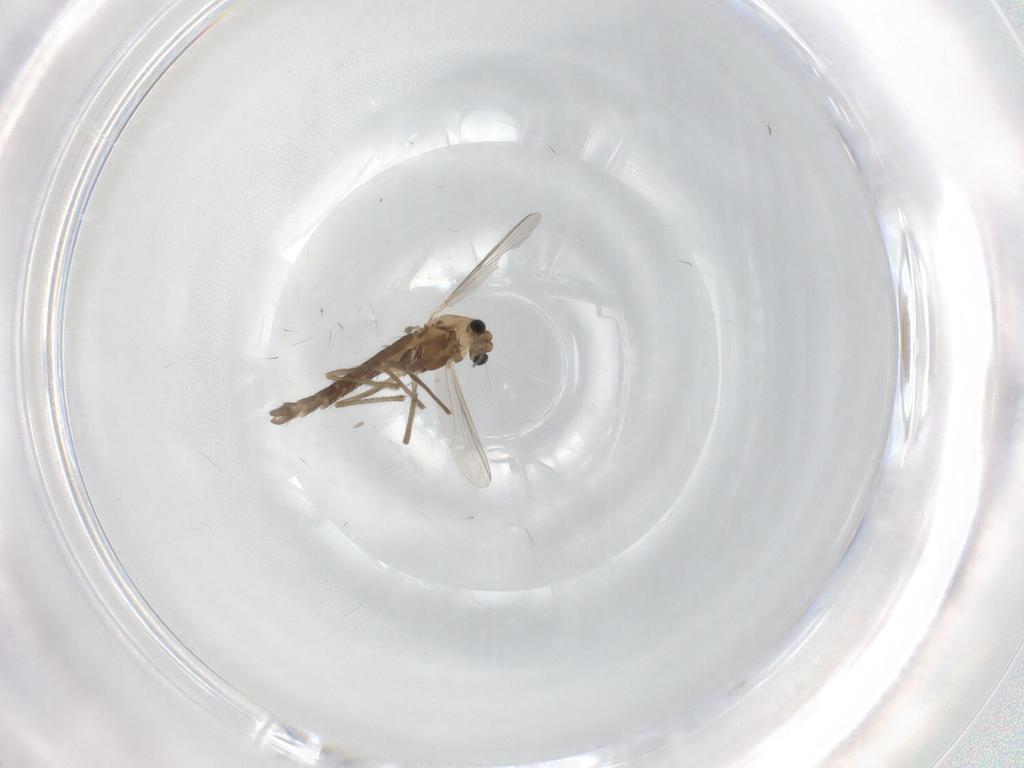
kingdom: Animalia
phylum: Arthropoda
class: Insecta
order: Diptera
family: Chironomidae
